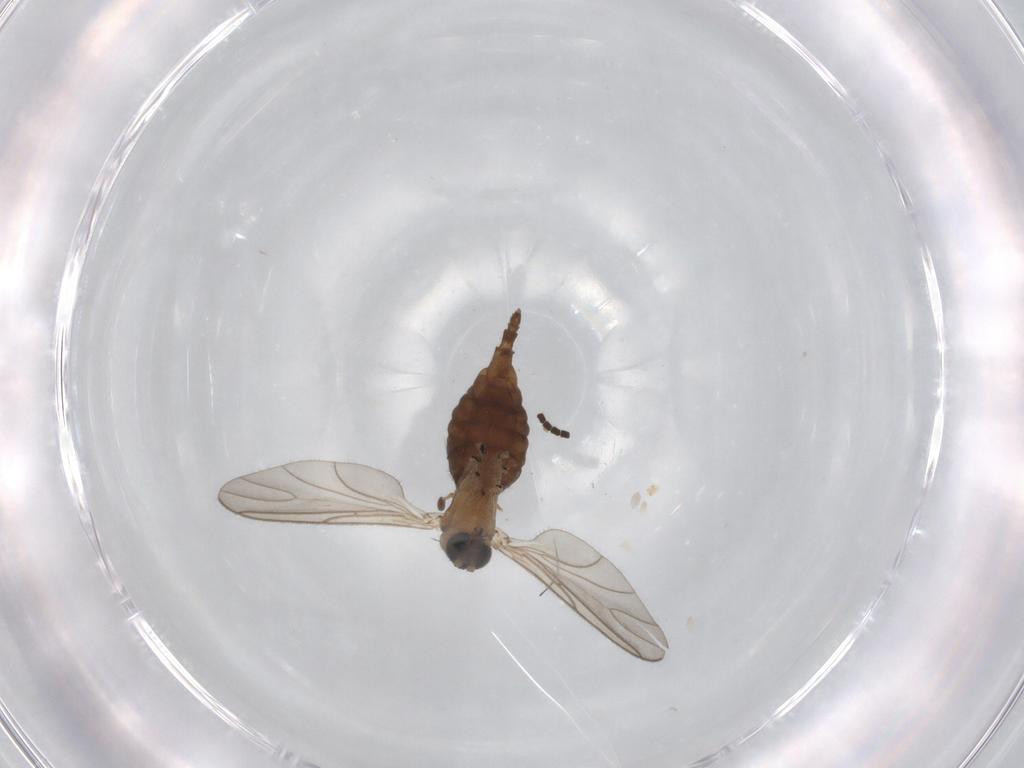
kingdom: Animalia
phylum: Arthropoda
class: Insecta
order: Diptera
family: Sciaridae
